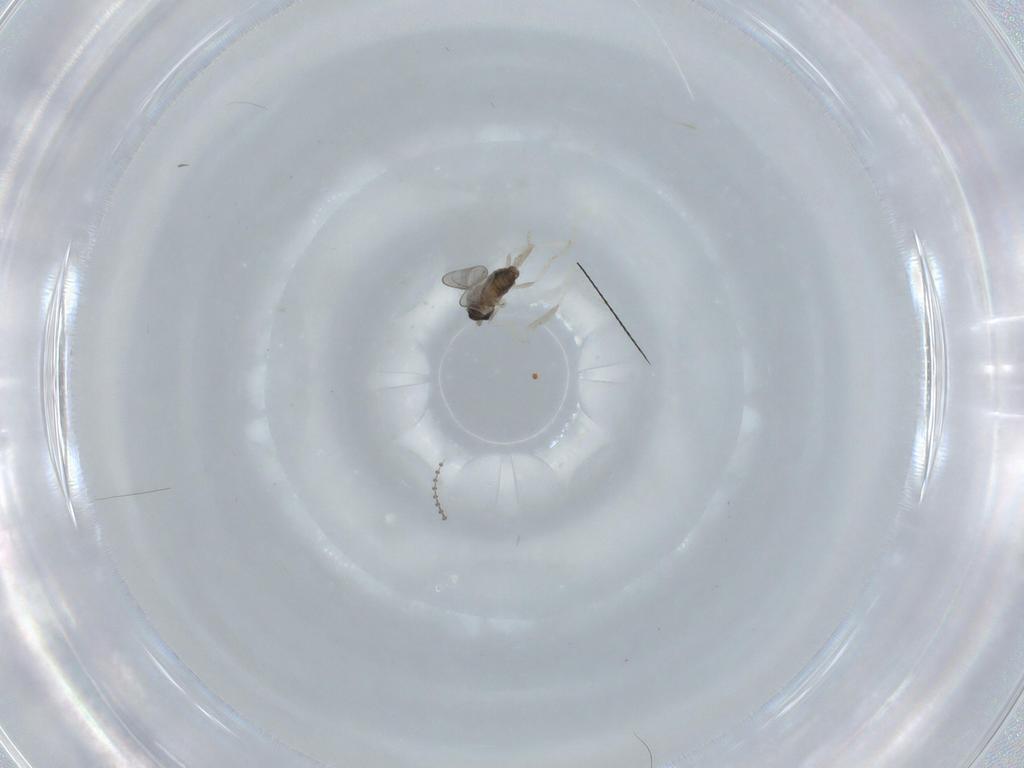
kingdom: Animalia
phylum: Arthropoda
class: Insecta
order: Diptera
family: Cecidomyiidae
